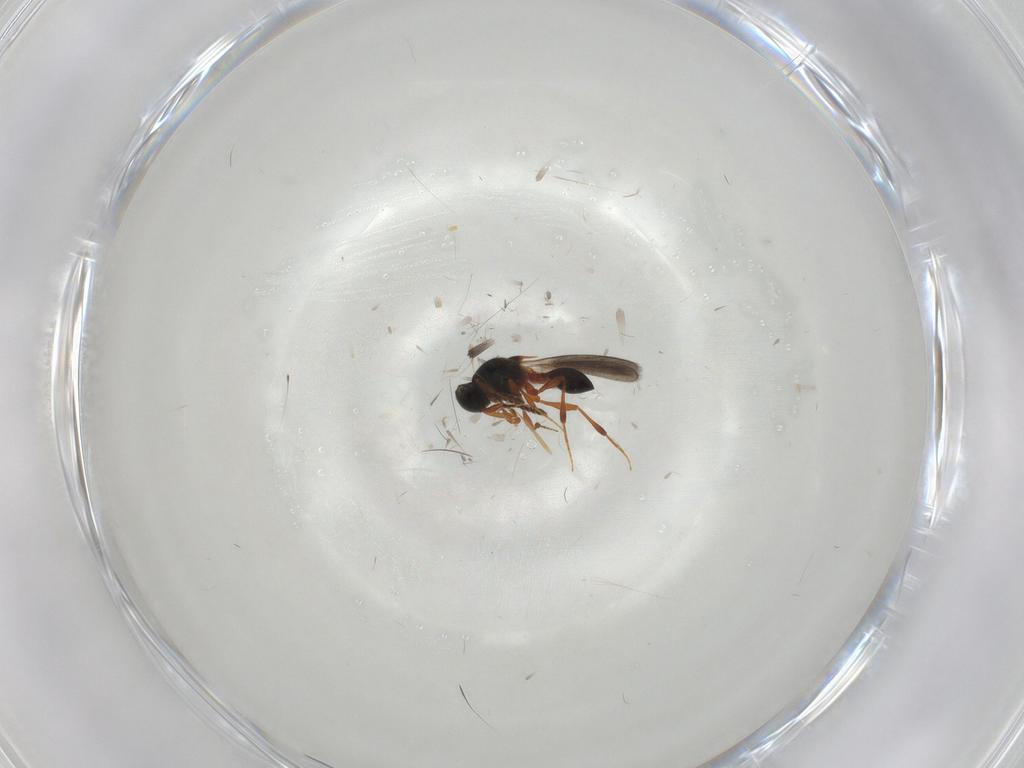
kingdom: Animalia
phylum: Arthropoda
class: Insecta
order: Hymenoptera
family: Platygastridae
